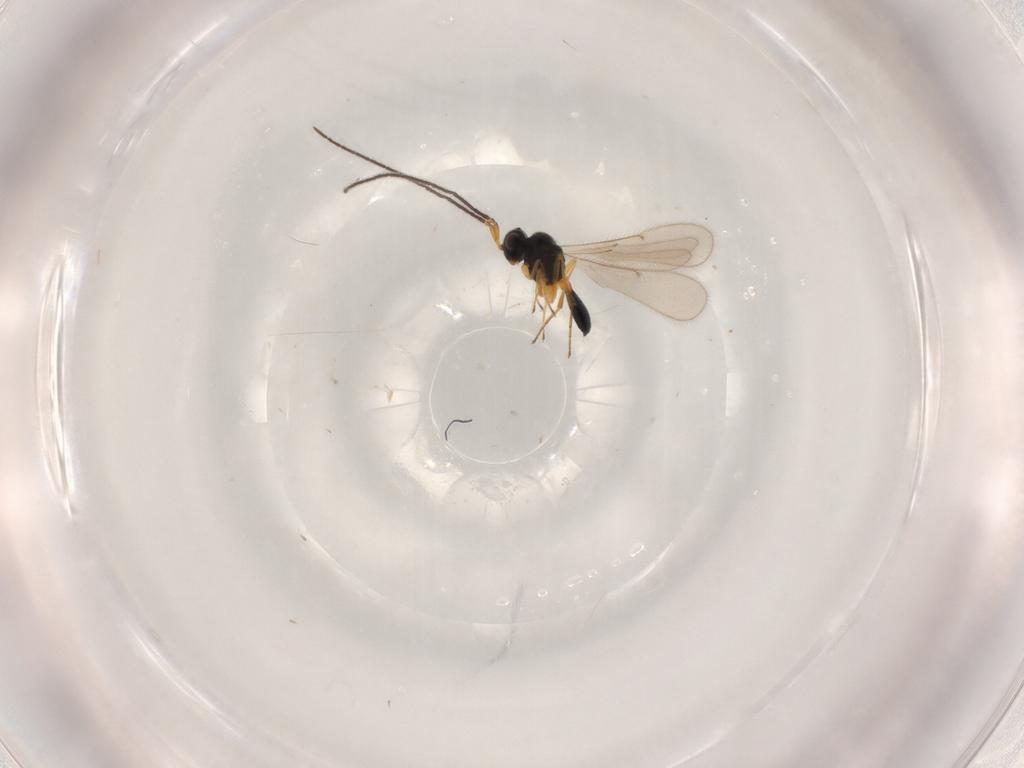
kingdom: Animalia
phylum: Arthropoda
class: Insecta
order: Hymenoptera
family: Scelionidae
